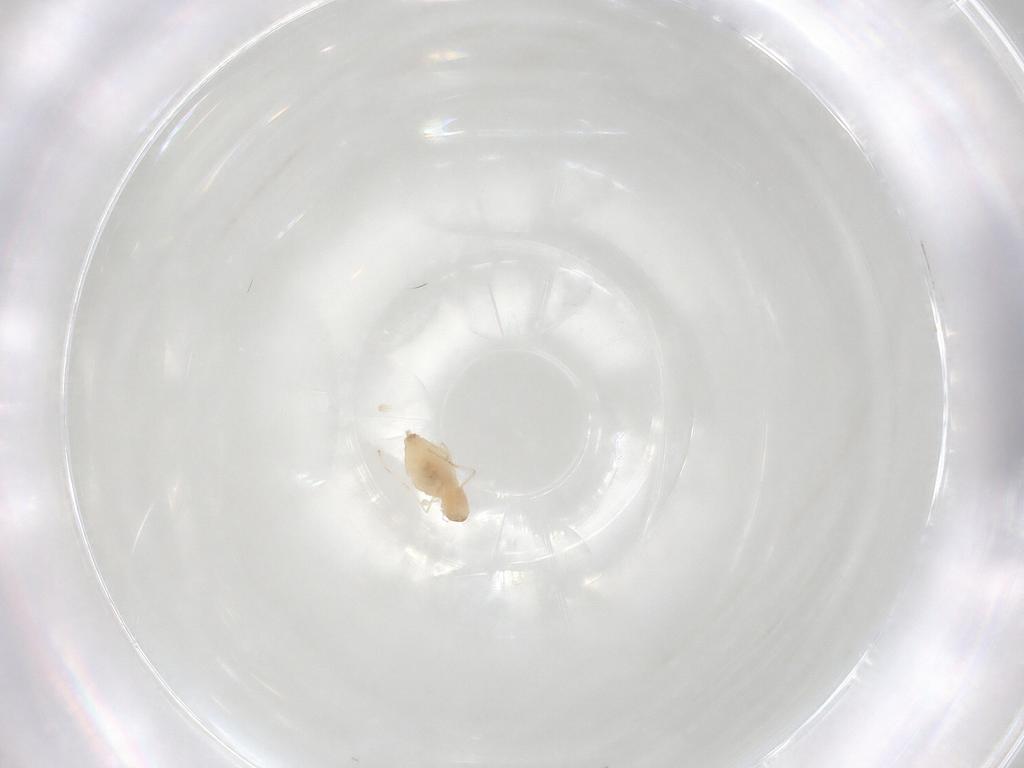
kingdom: Animalia
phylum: Arthropoda
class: Insecta
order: Diptera
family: Cecidomyiidae
